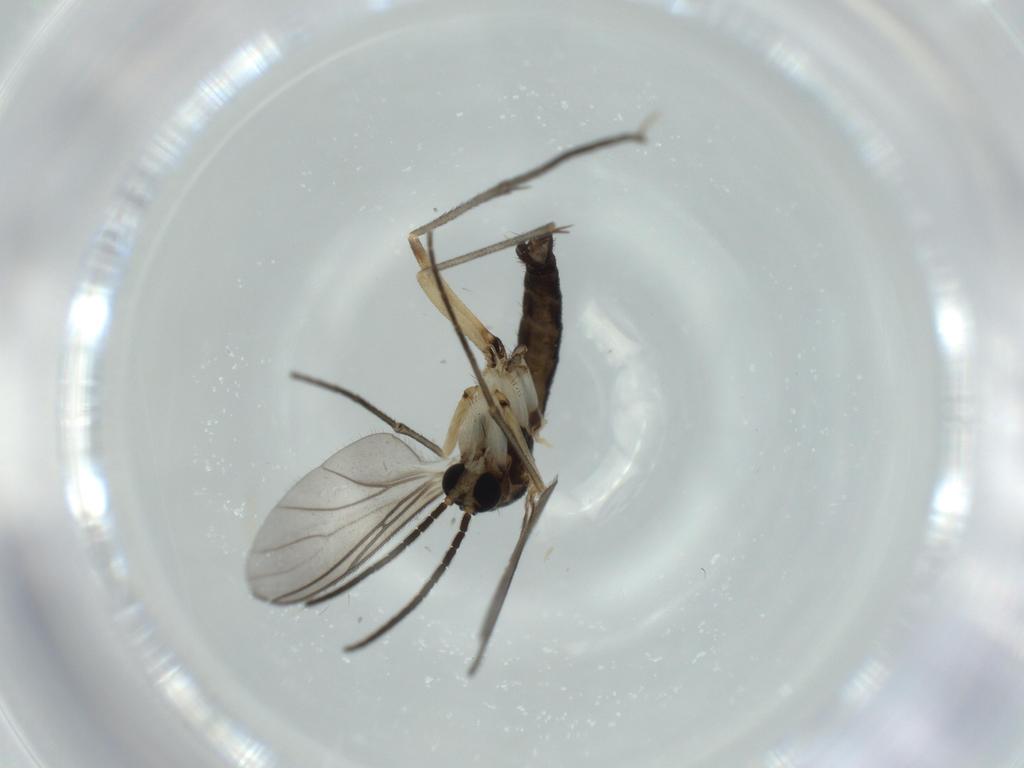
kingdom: Animalia
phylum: Arthropoda
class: Insecta
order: Diptera
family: Sciaridae
